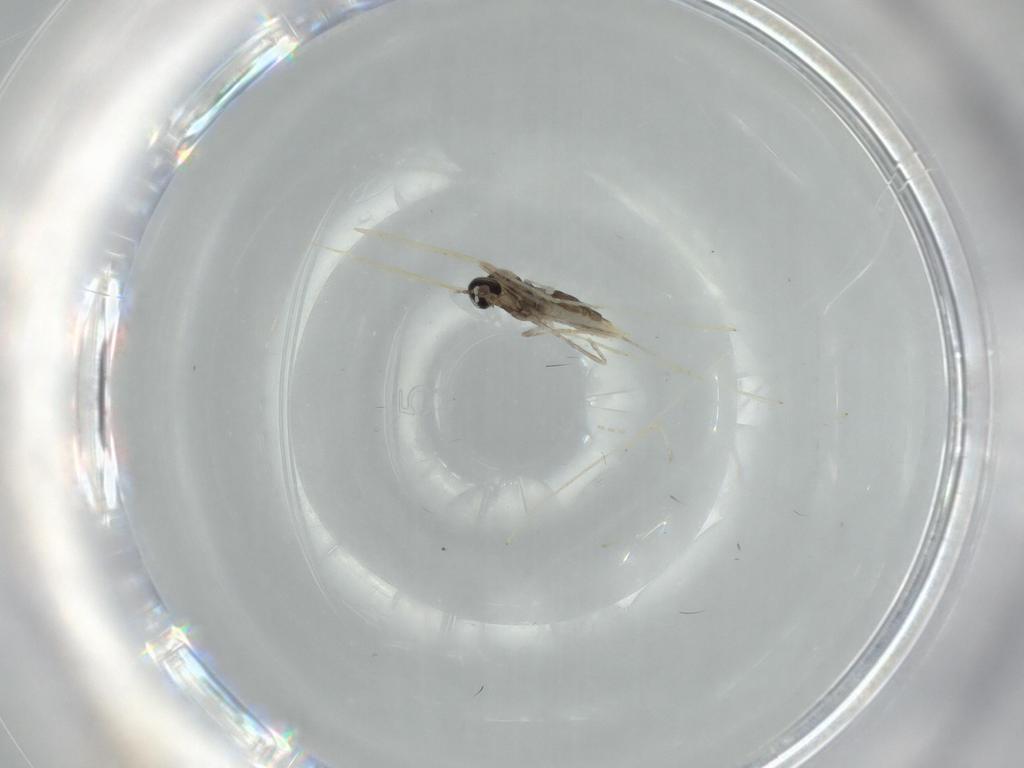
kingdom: Animalia
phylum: Arthropoda
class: Insecta
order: Diptera
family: Cecidomyiidae
